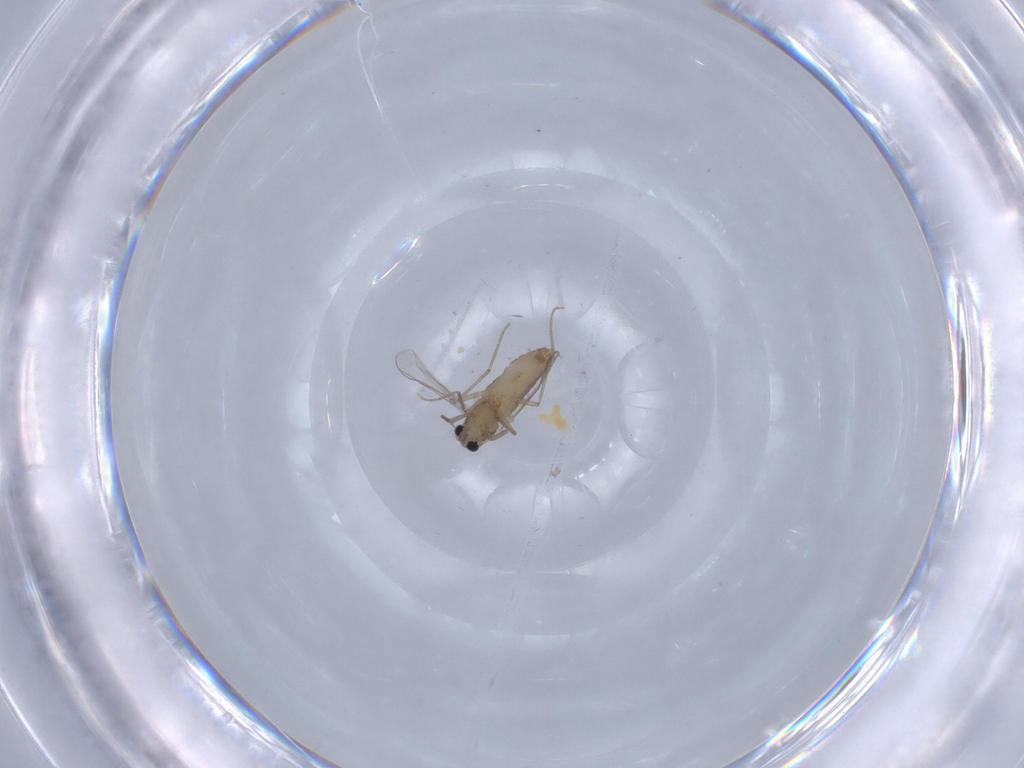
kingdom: Animalia
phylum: Arthropoda
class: Insecta
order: Diptera
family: Chironomidae
